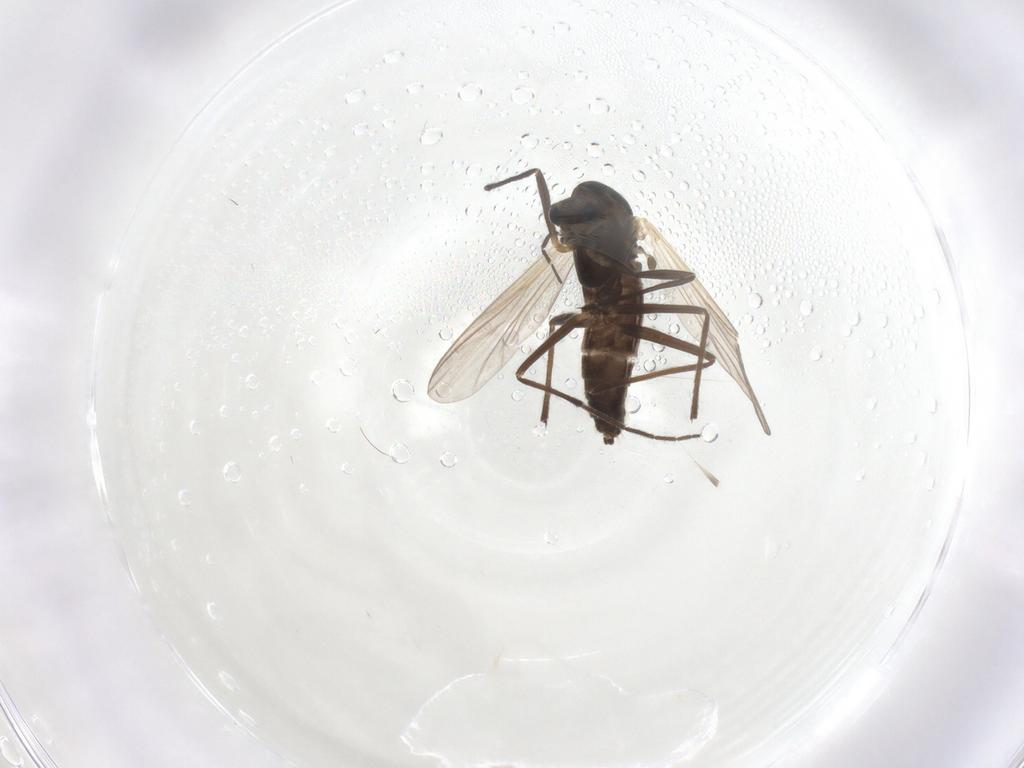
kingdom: Animalia
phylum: Arthropoda
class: Insecta
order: Diptera
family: Chironomidae
